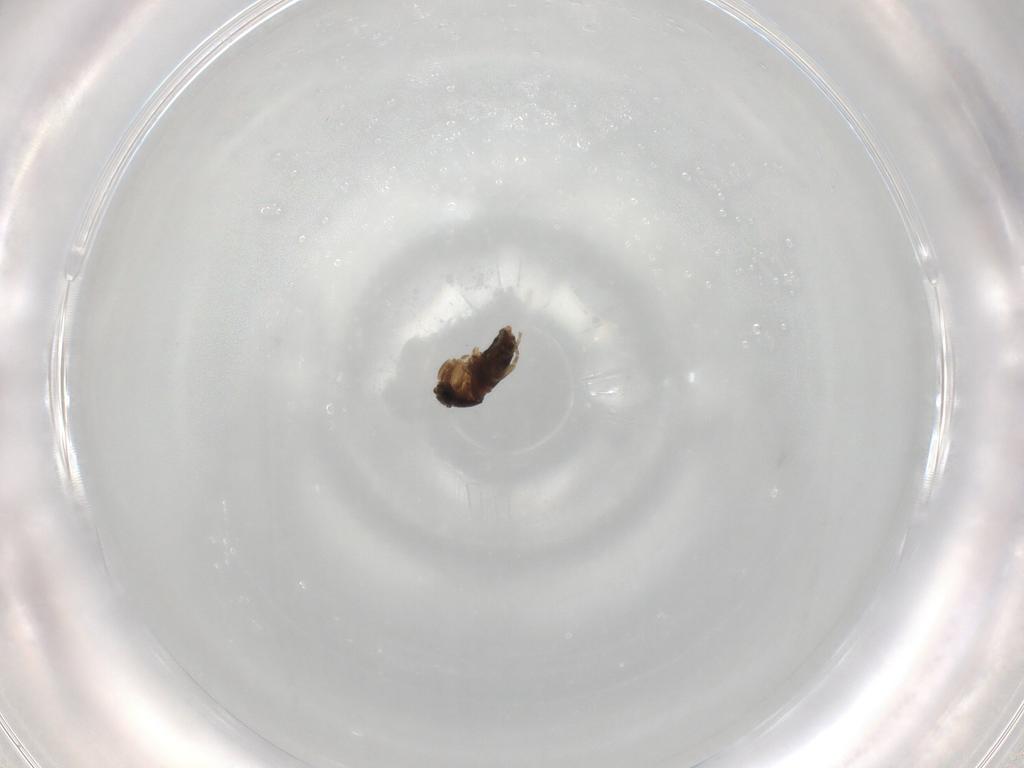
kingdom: Animalia
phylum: Arthropoda
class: Insecta
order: Diptera
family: Phoridae
